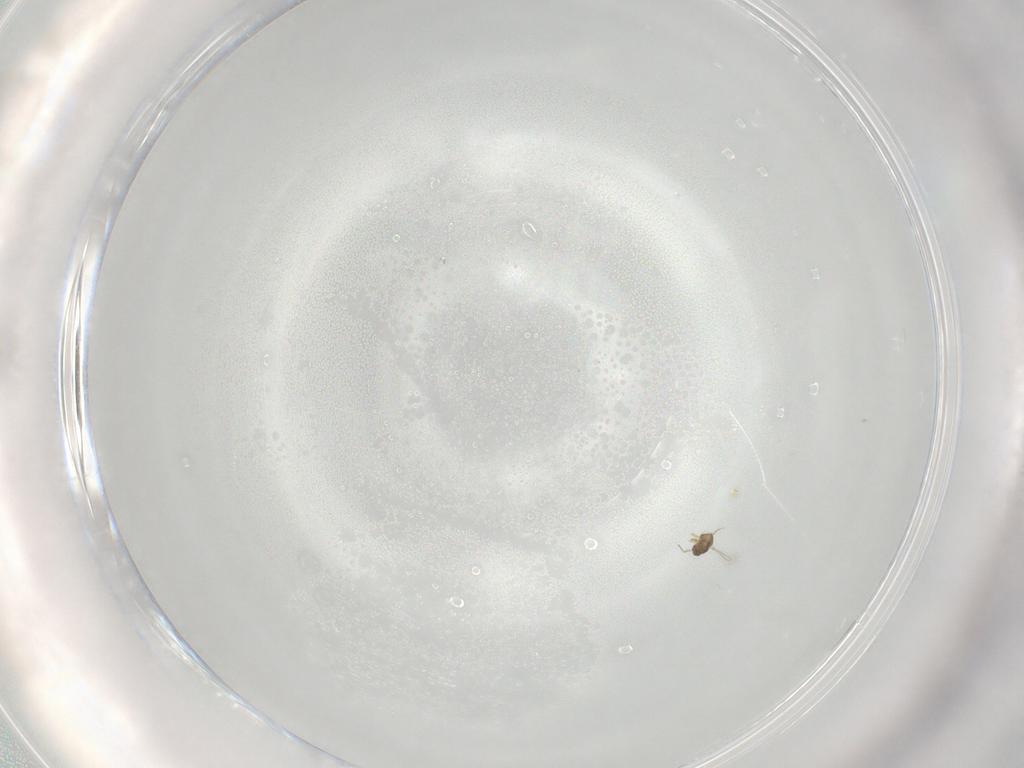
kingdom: Animalia
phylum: Arthropoda
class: Insecta
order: Hymenoptera
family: Mymaridae
